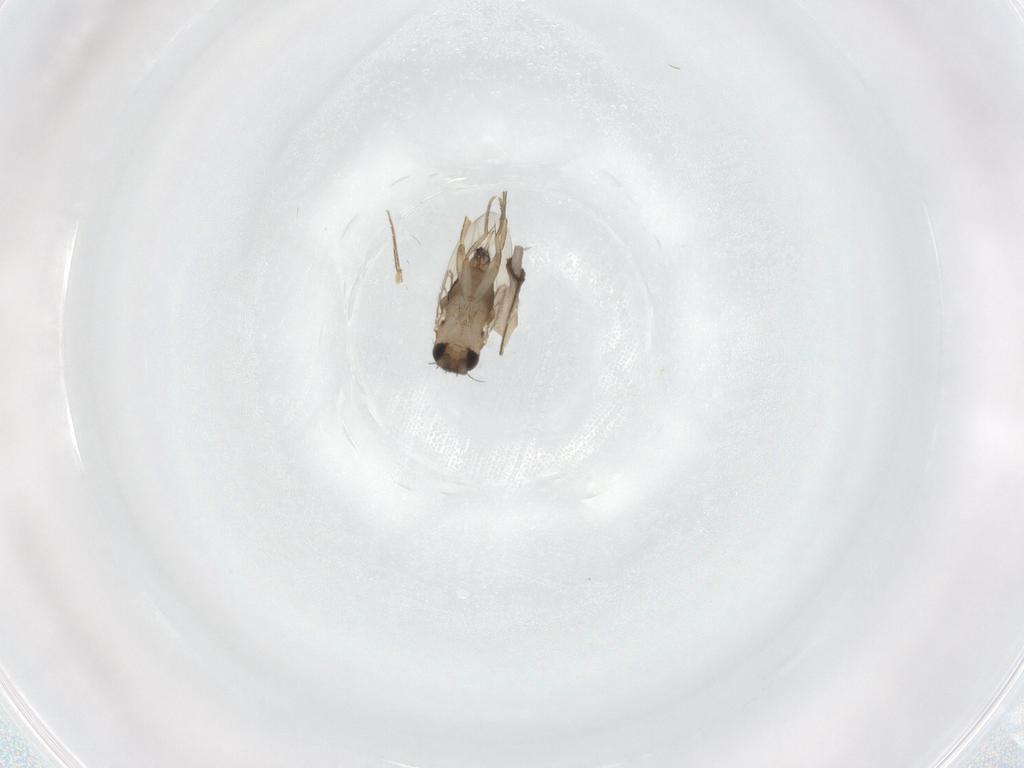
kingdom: Animalia
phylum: Arthropoda
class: Insecta
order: Diptera
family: Phoridae
